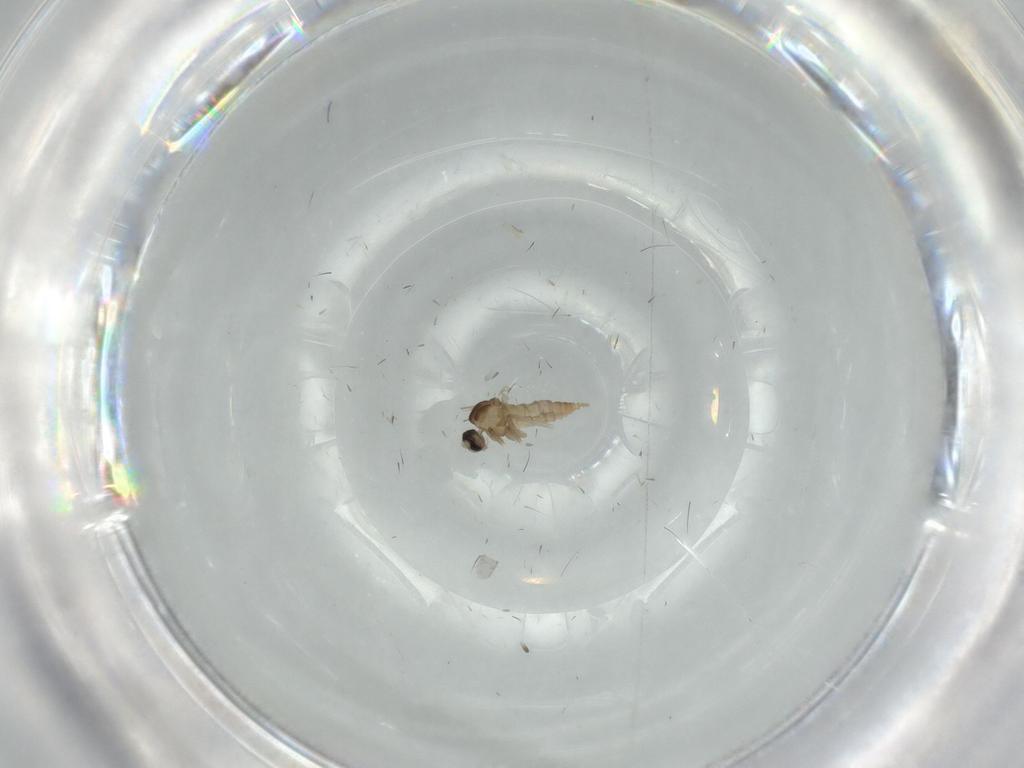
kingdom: Animalia
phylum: Arthropoda
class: Insecta
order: Diptera
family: Cecidomyiidae
